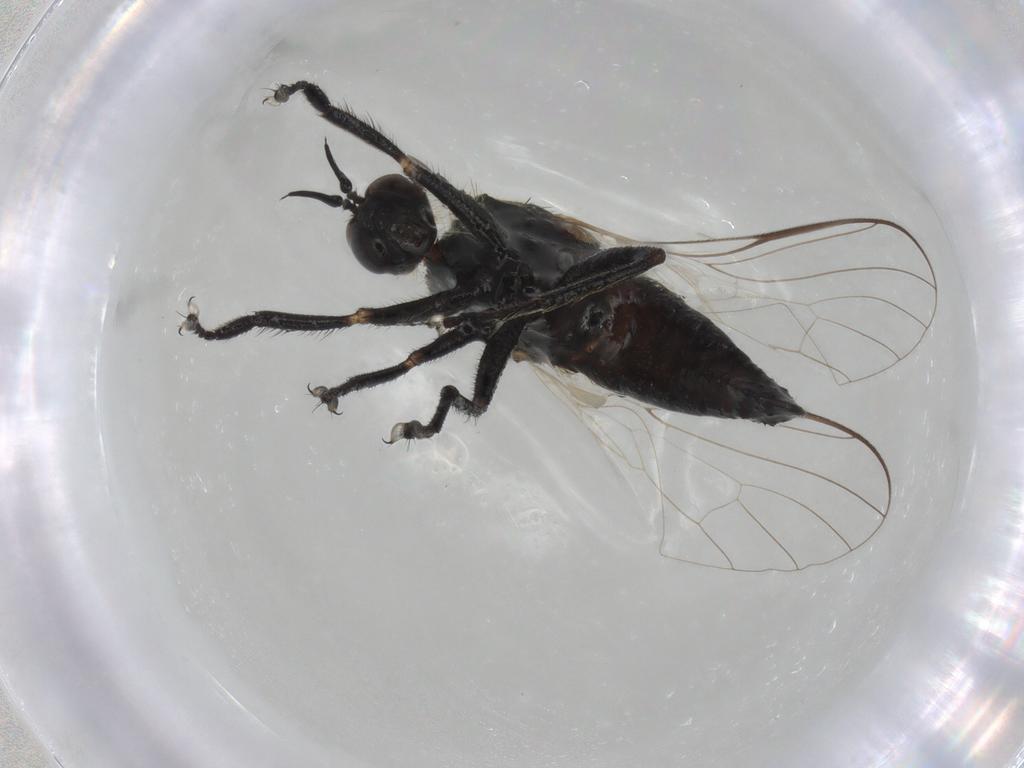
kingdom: Animalia
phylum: Arthropoda
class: Insecta
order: Diptera
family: Empididae
